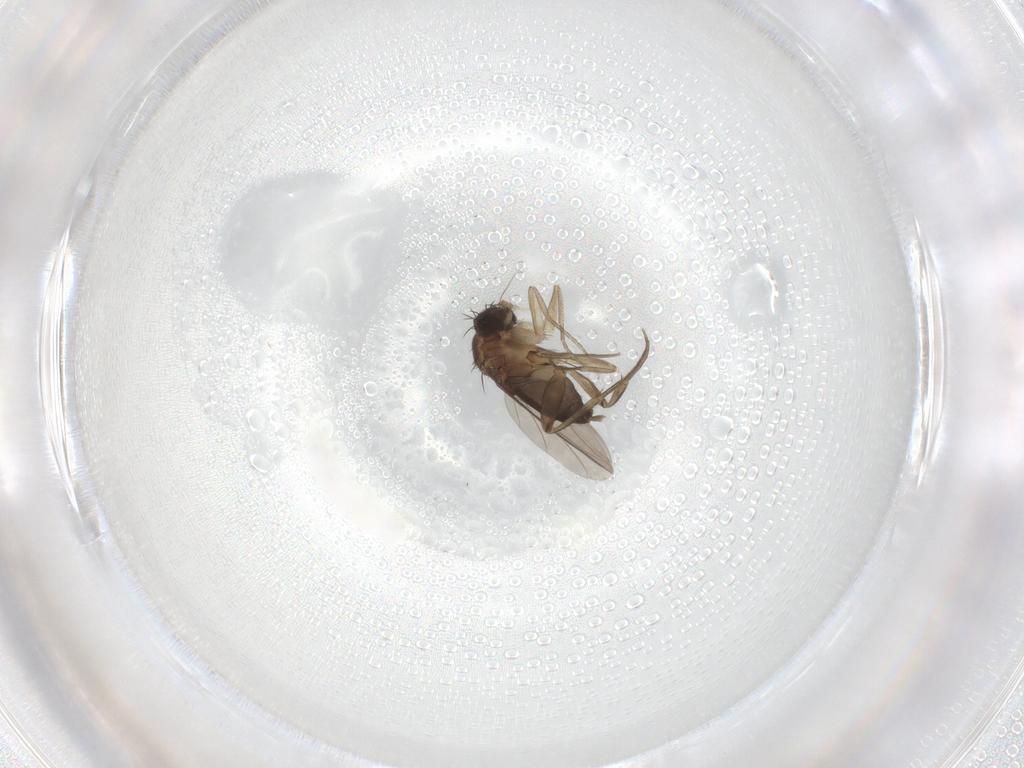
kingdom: Animalia
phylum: Arthropoda
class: Insecta
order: Diptera
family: Phoridae
